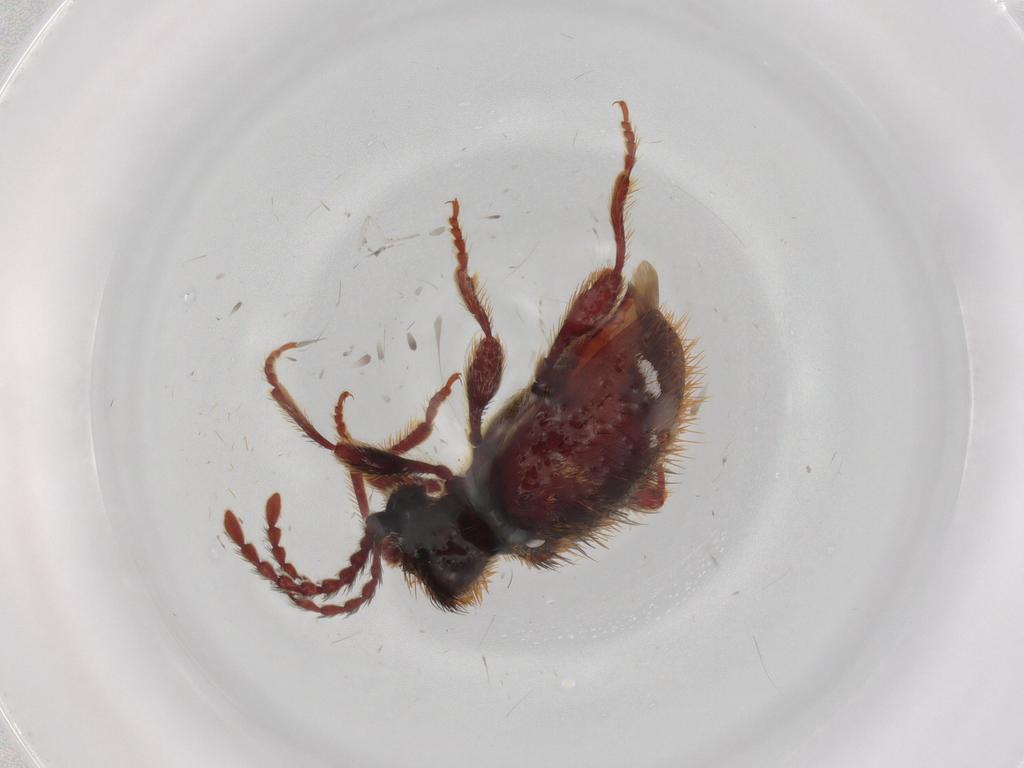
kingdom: Animalia
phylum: Arthropoda
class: Insecta
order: Coleoptera
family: Ptinidae
